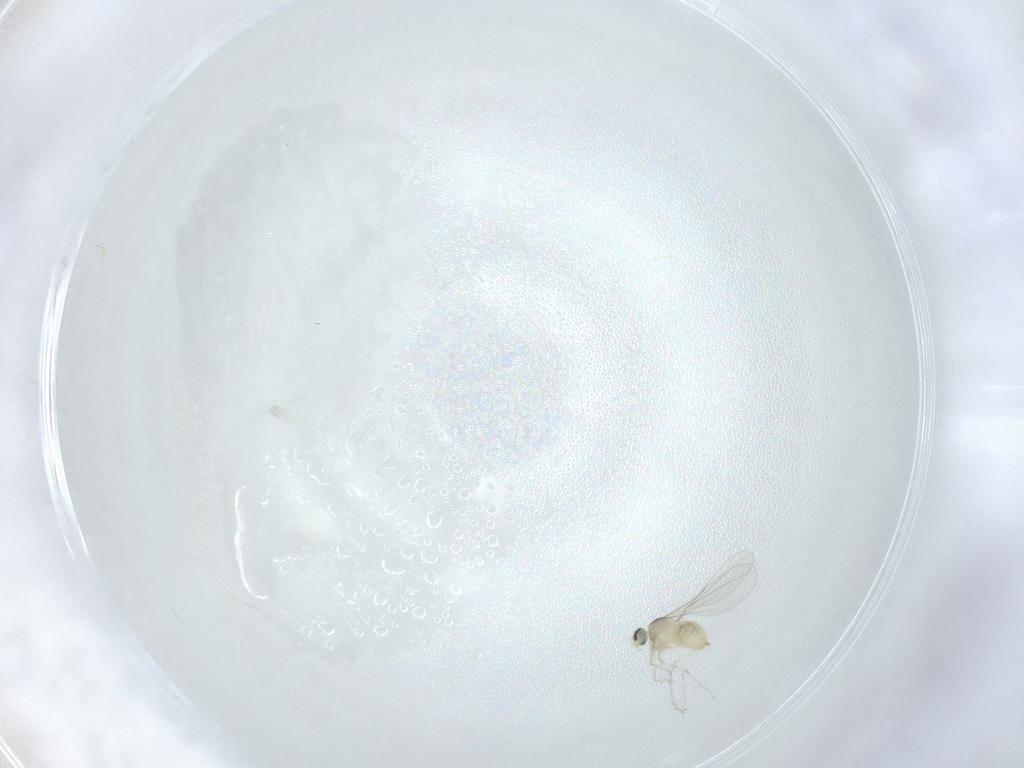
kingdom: Animalia
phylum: Arthropoda
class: Insecta
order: Diptera
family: Cecidomyiidae
